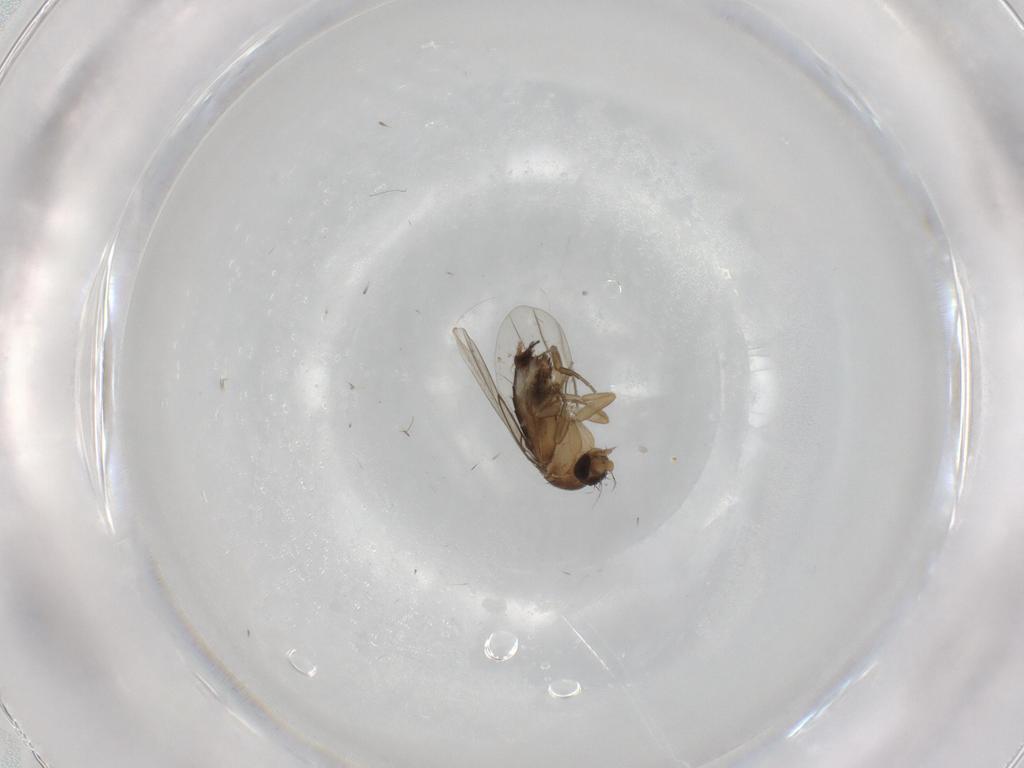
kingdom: Animalia
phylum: Arthropoda
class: Insecta
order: Diptera
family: Phoridae
